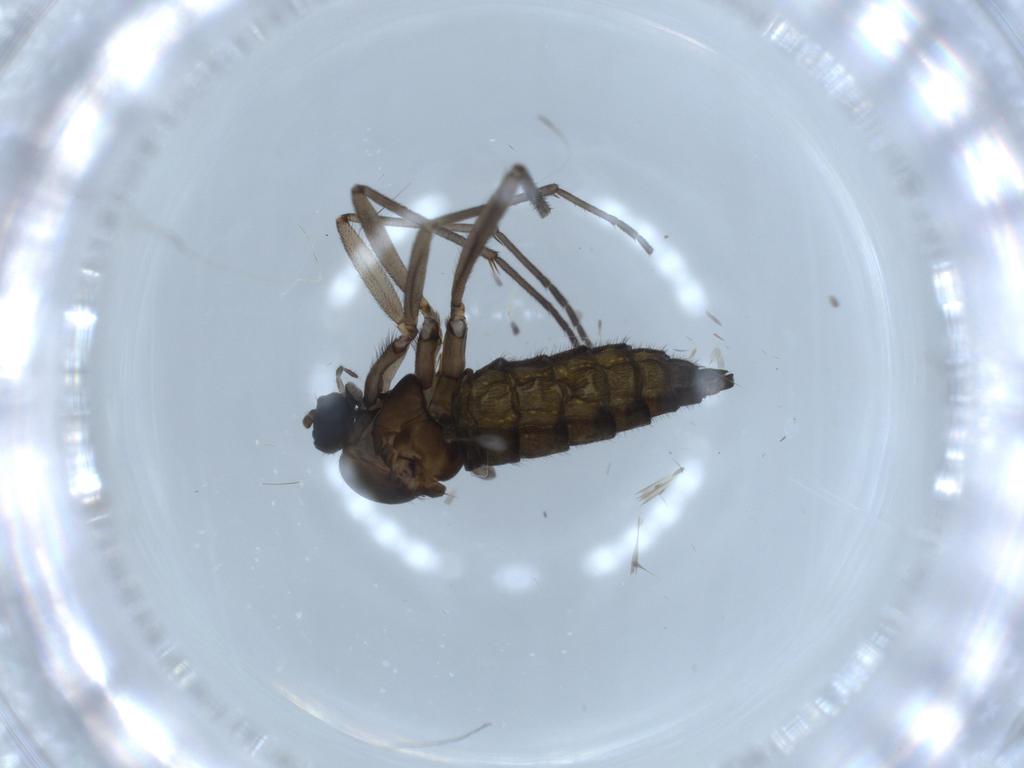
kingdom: Animalia
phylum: Arthropoda
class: Insecta
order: Diptera
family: Sciaridae
